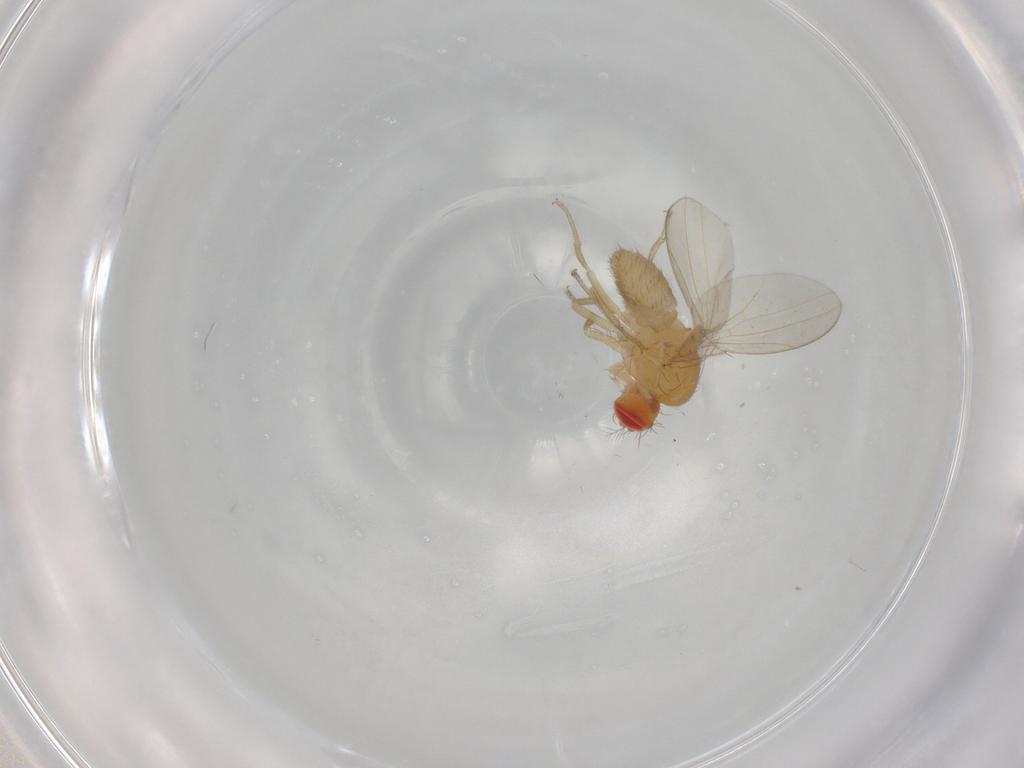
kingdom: Animalia
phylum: Arthropoda
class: Insecta
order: Diptera
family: Drosophilidae
